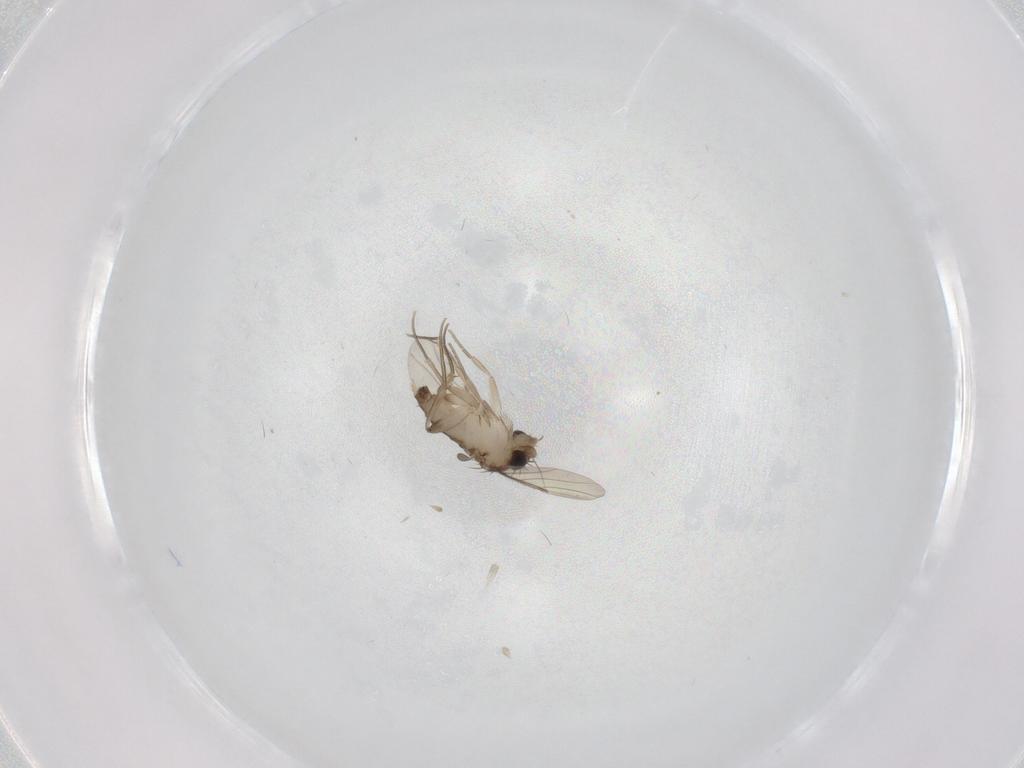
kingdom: Animalia
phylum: Arthropoda
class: Insecta
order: Diptera
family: Phoridae
